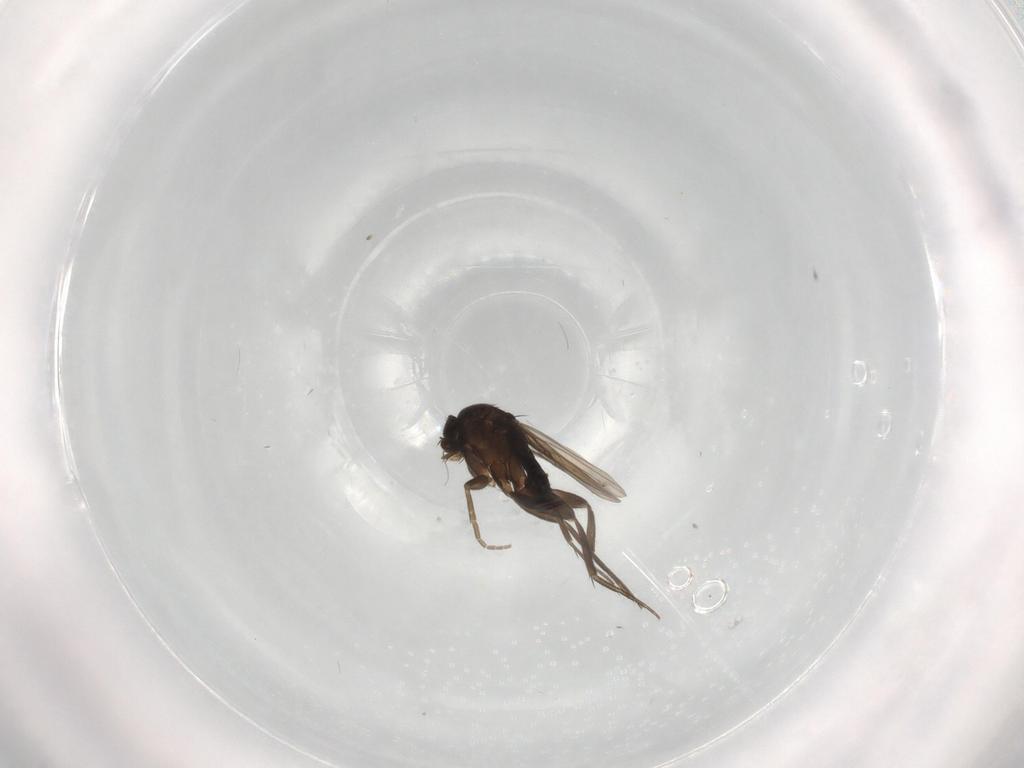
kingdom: Animalia
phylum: Arthropoda
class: Insecta
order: Diptera
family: Phoridae
